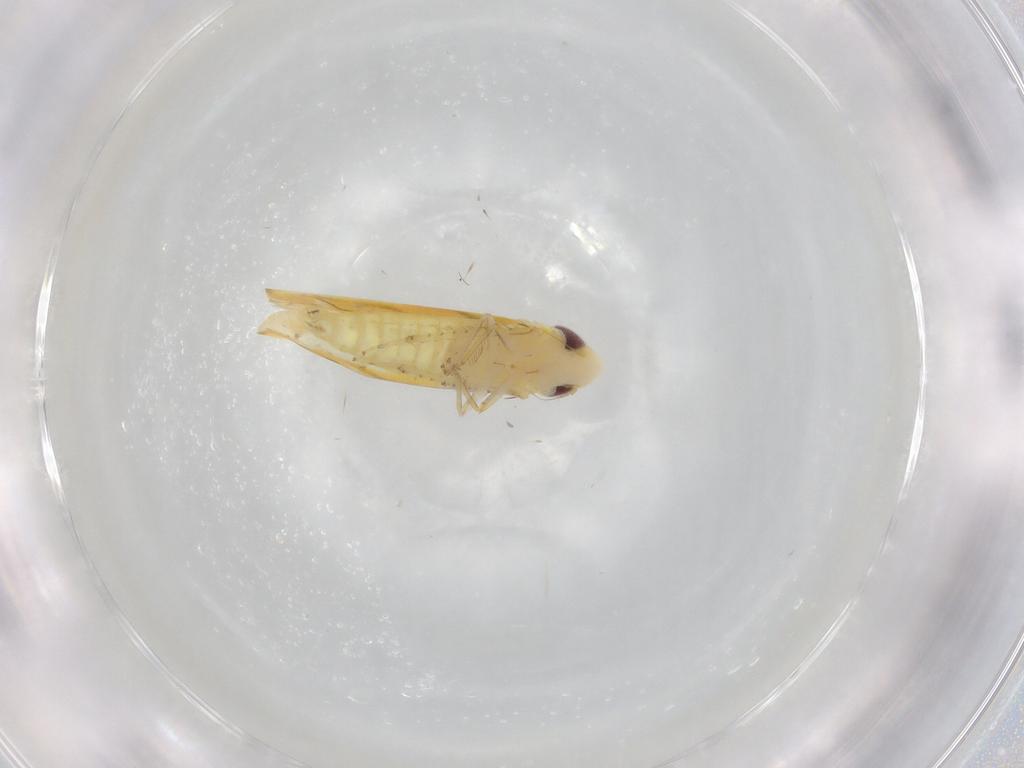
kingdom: Animalia
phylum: Arthropoda
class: Insecta
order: Hemiptera
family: Cicadellidae
